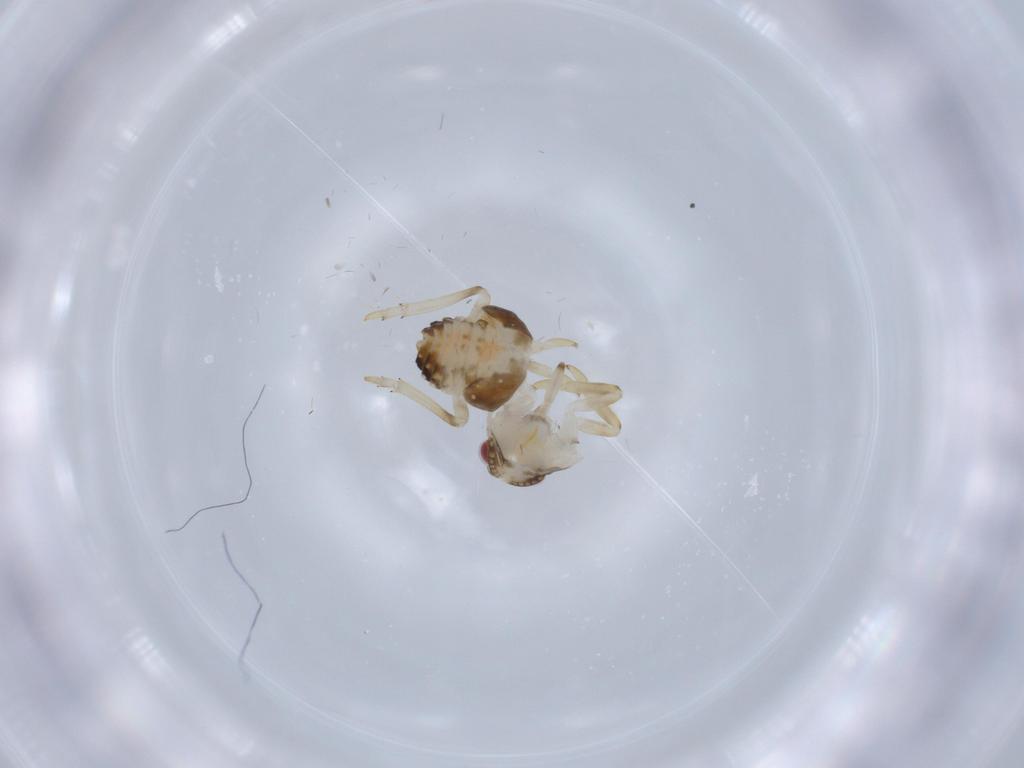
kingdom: Animalia
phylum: Arthropoda
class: Insecta
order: Hemiptera
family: Issidae
